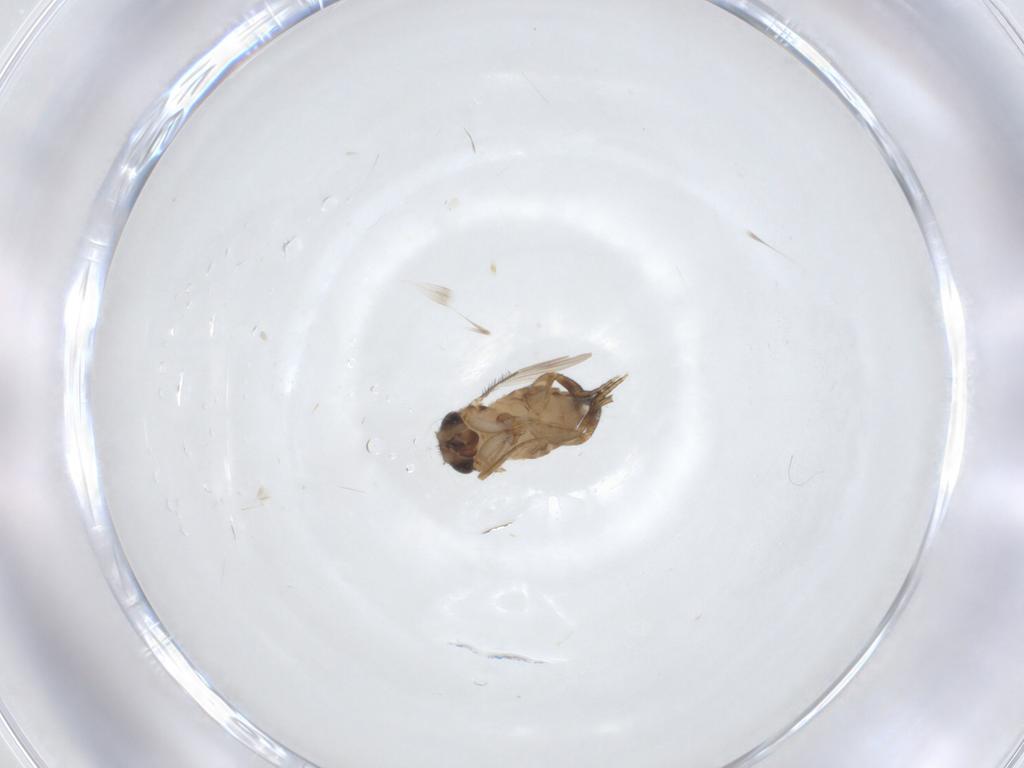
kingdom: Animalia
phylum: Arthropoda
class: Insecta
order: Diptera
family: Phoridae
